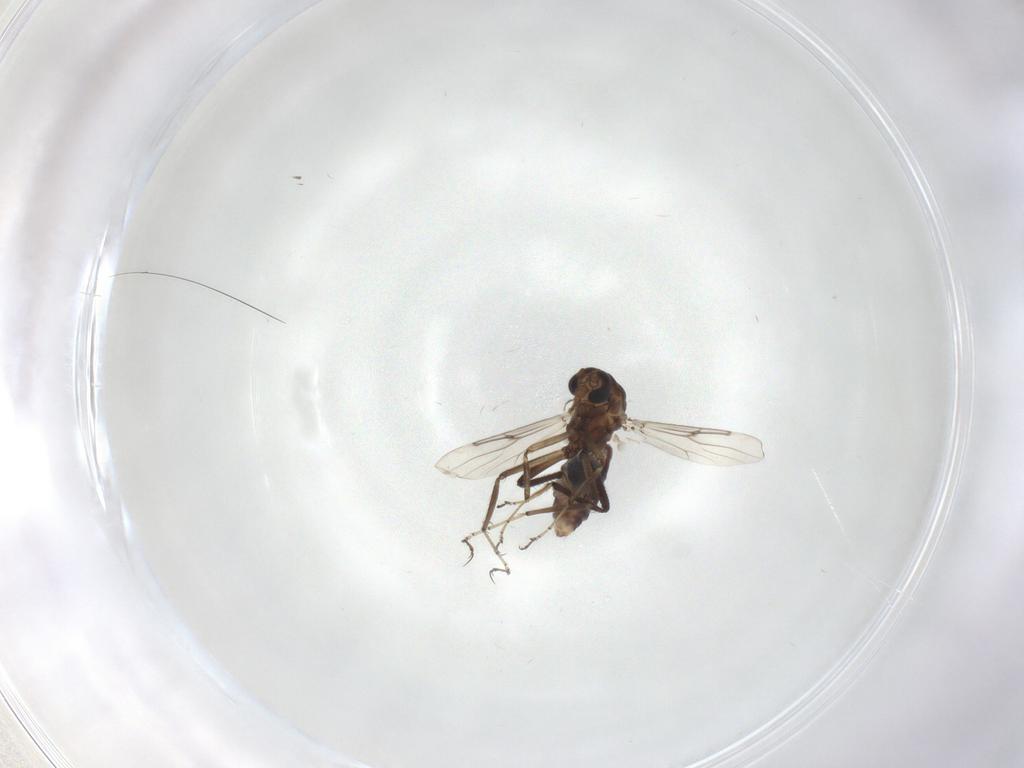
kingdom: Animalia
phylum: Arthropoda
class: Insecta
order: Diptera
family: Ceratopogonidae
